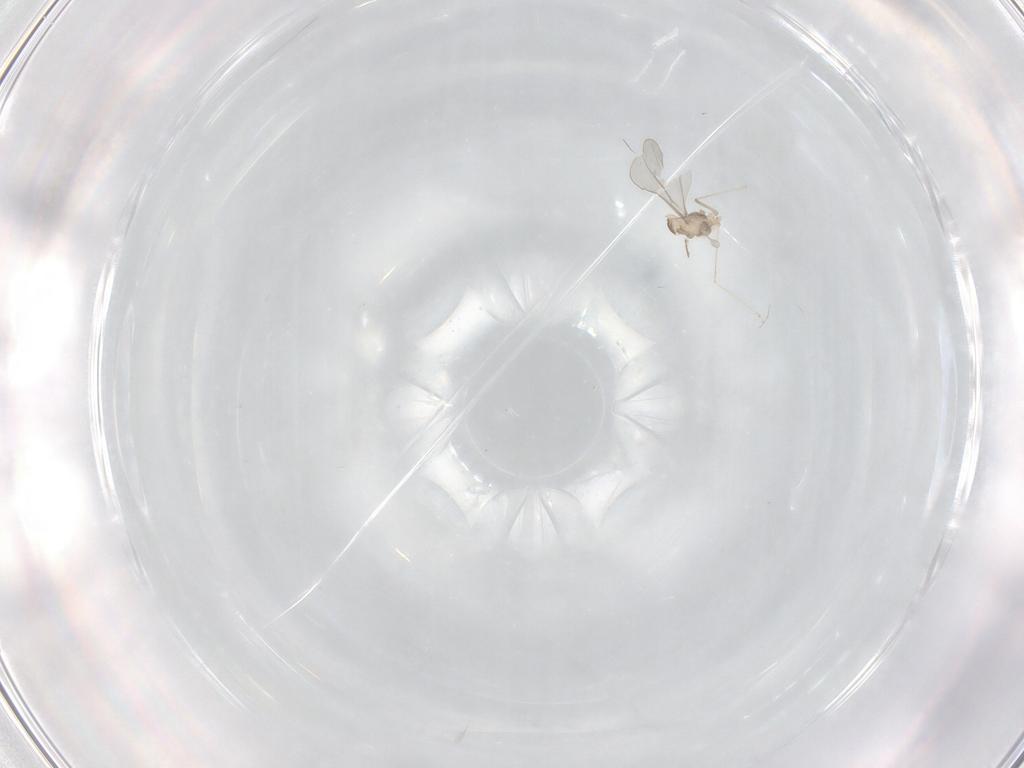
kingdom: Animalia
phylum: Arthropoda
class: Insecta
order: Diptera
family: Cecidomyiidae
